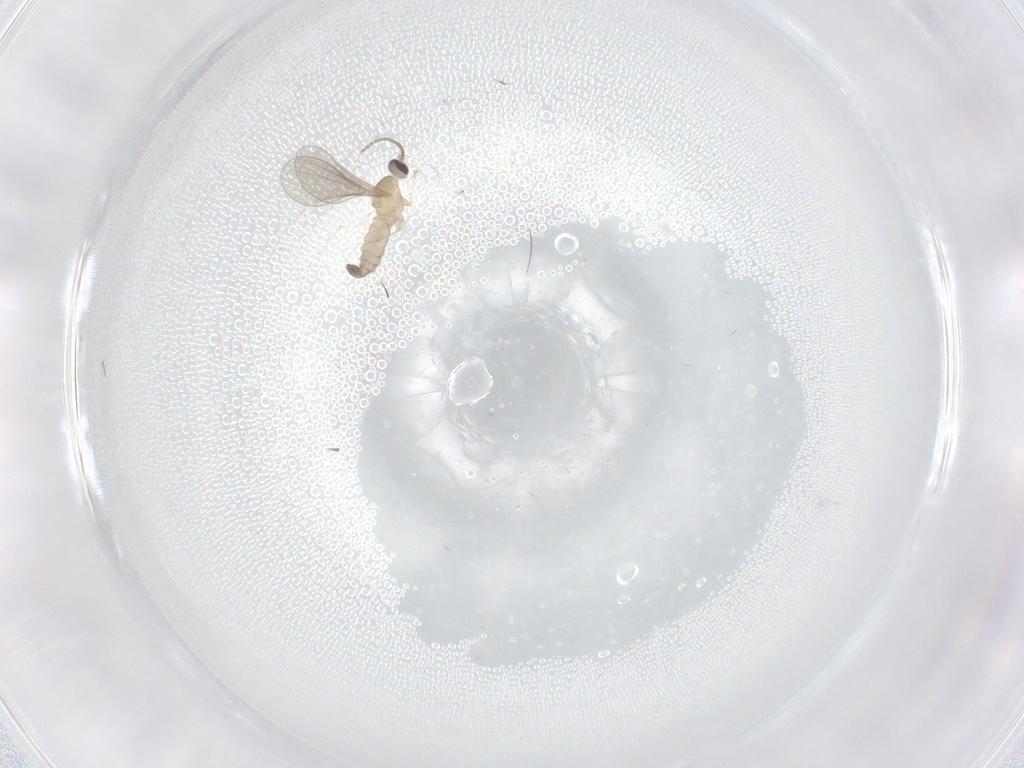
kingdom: Animalia
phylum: Arthropoda
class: Insecta
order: Diptera
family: Cecidomyiidae
